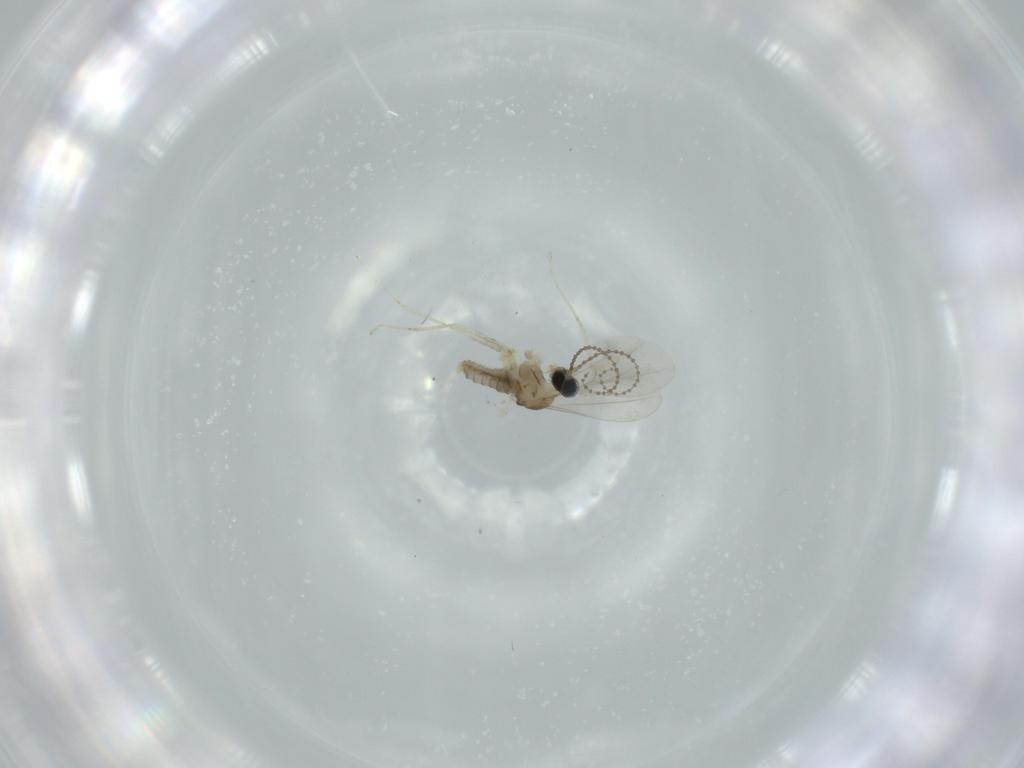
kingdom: Animalia
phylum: Arthropoda
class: Insecta
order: Diptera
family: Cecidomyiidae
